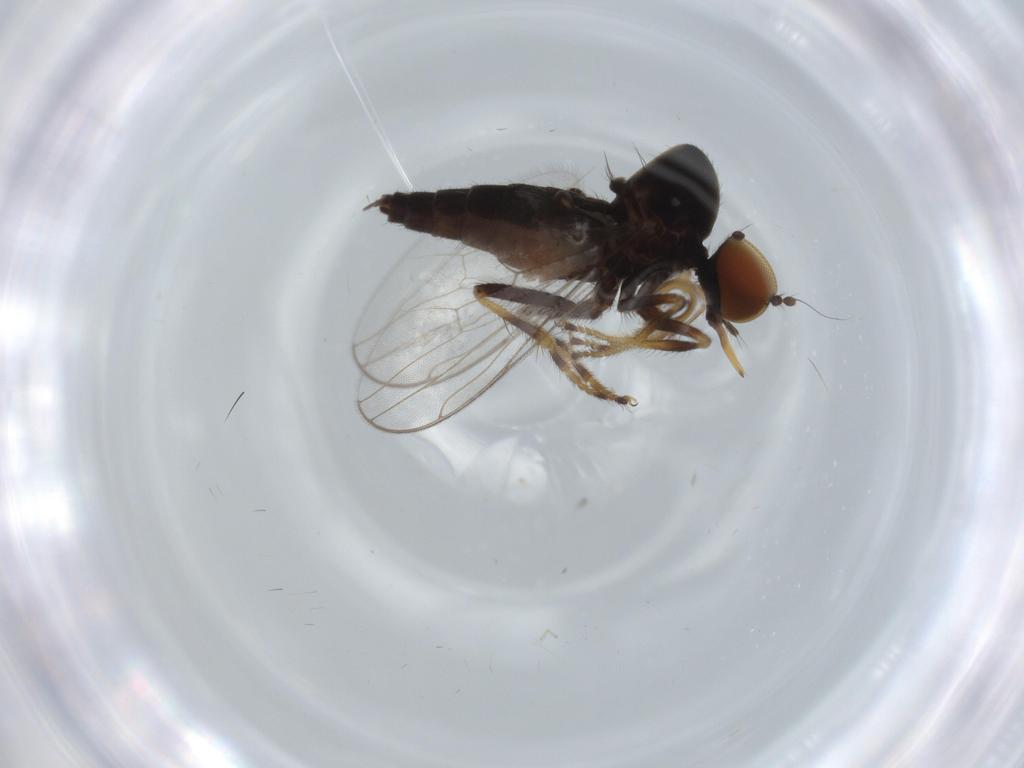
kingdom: Animalia
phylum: Arthropoda
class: Insecta
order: Diptera
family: Hybotidae
